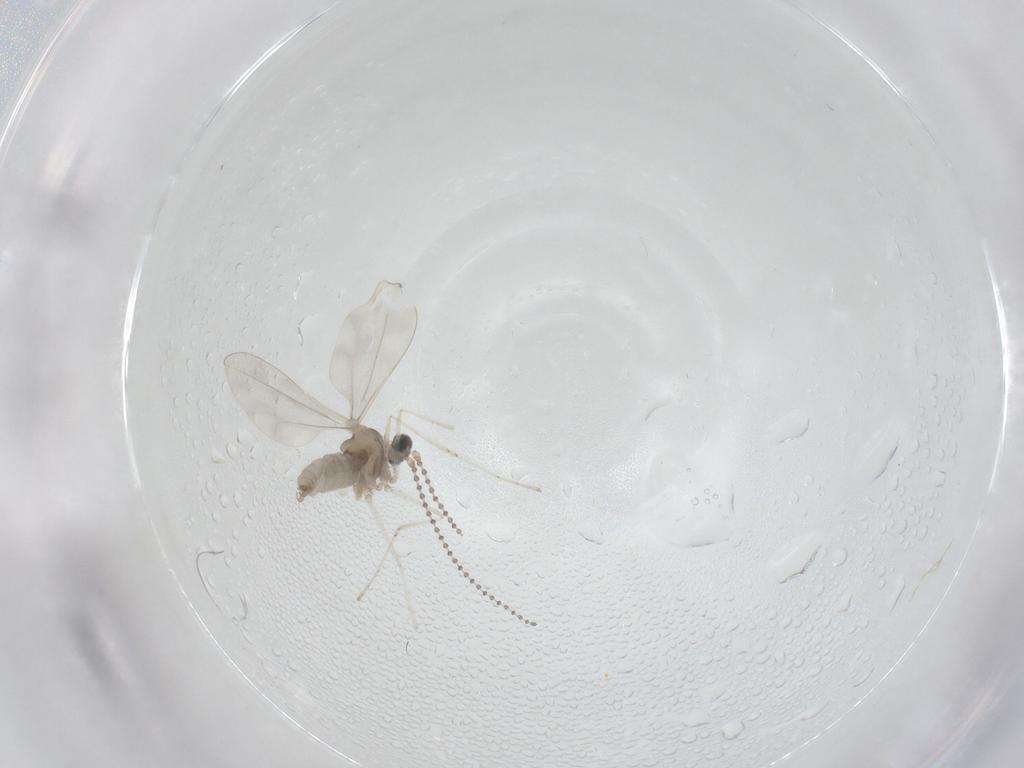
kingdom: Animalia
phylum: Arthropoda
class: Insecta
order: Diptera
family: Cecidomyiidae
